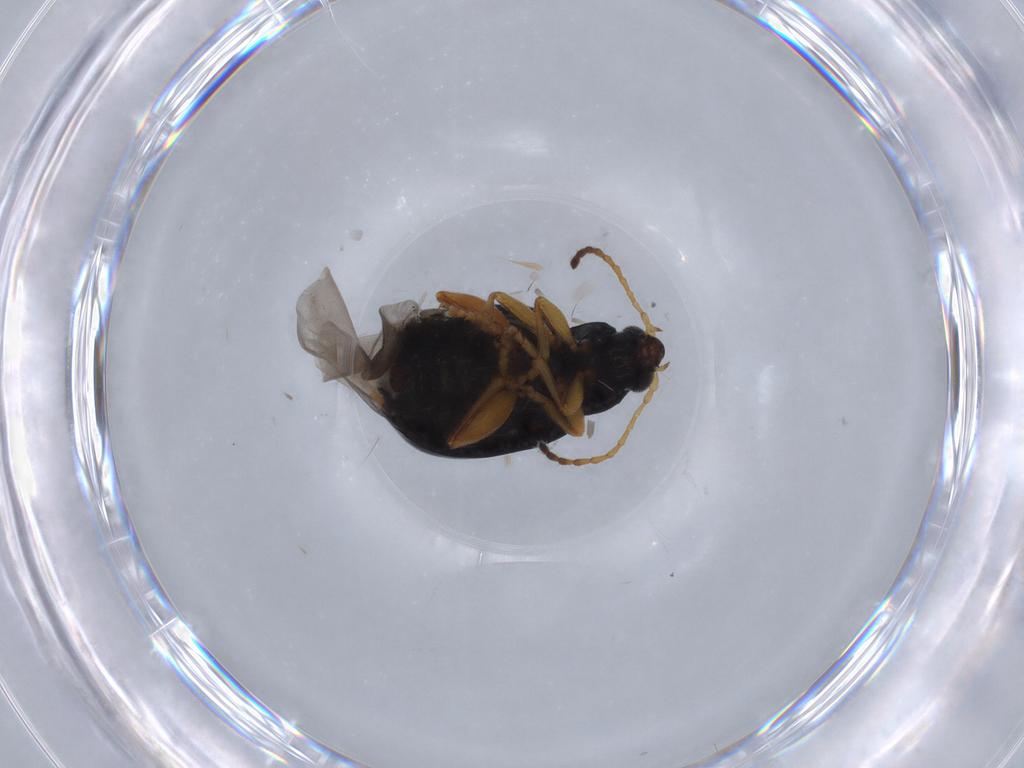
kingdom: Animalia
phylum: Arthropoda
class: Insecta
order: Coleoptera
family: Chrysomelidae
